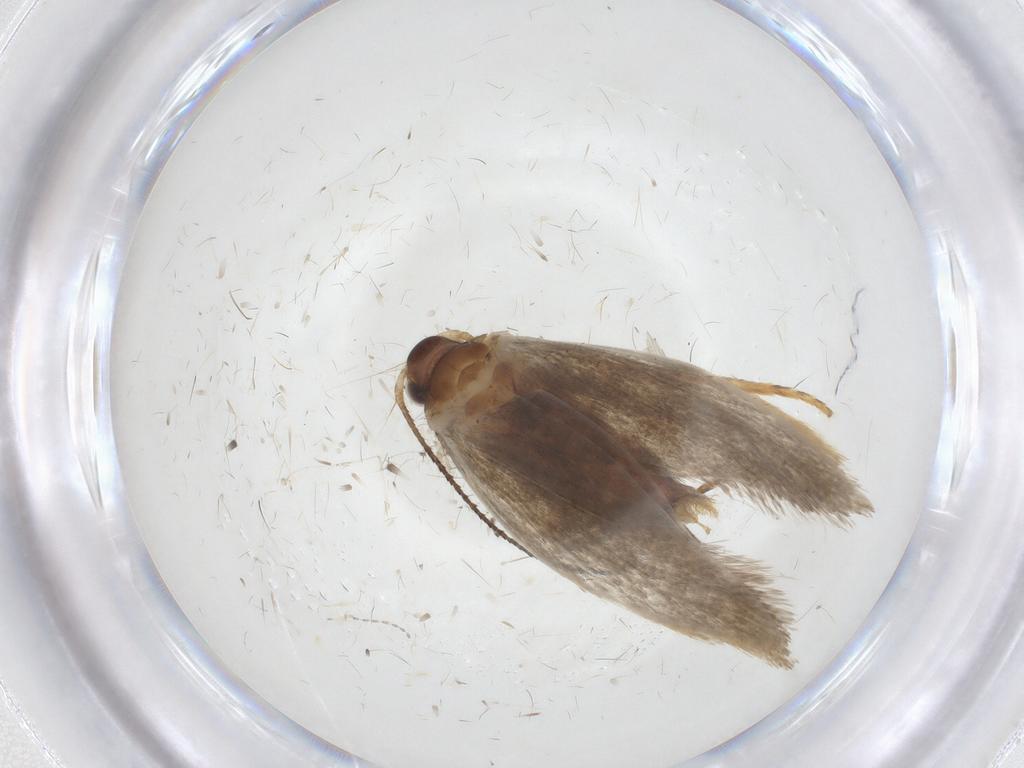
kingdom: Animalia
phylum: Arthropoda
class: Insecta
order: Lepidoptera
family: Oecophoridae
